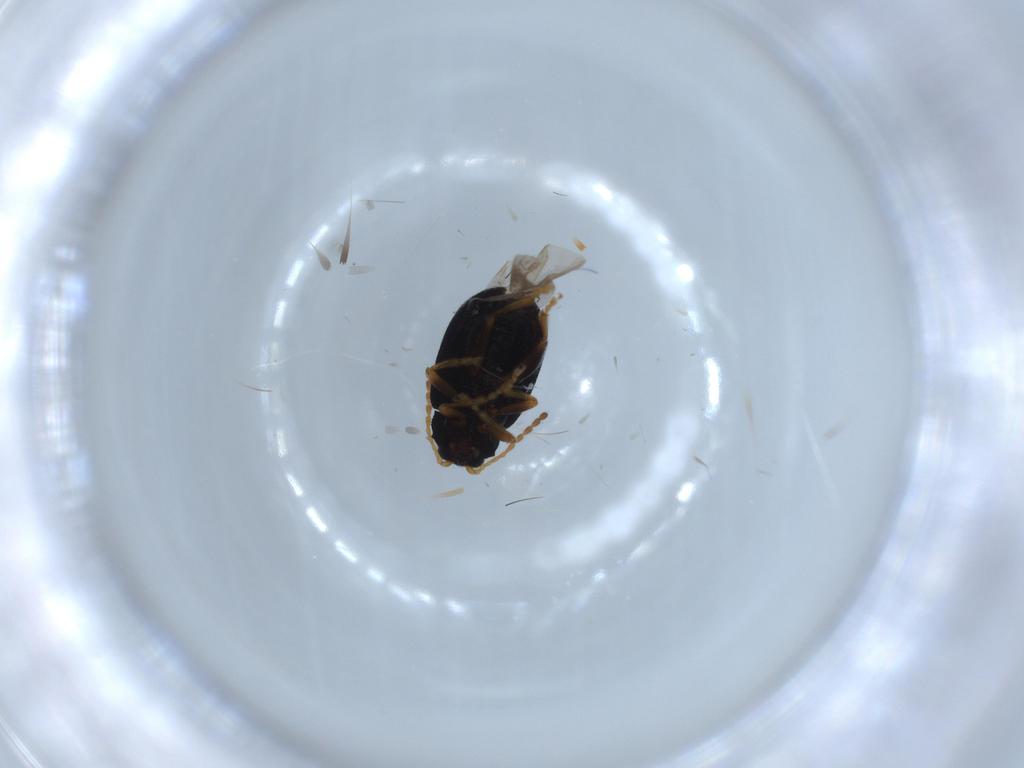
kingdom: Animalia
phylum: Arthropoda
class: Insecta
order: Coleoptera
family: Chrysomelidae
